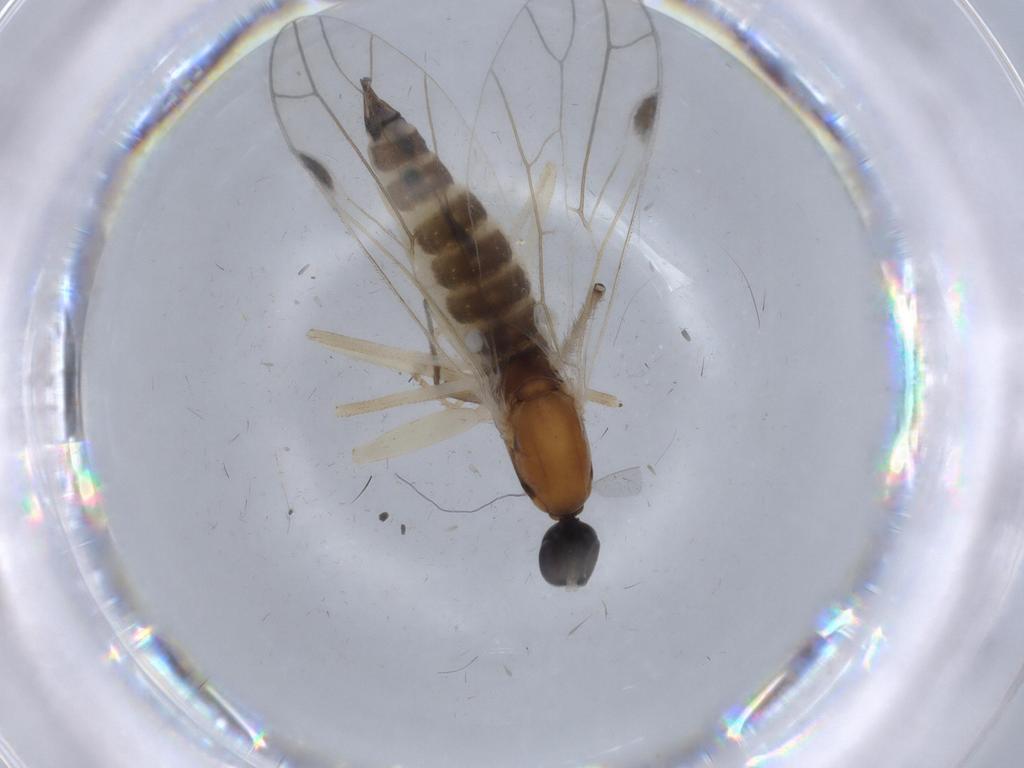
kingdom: Animalia
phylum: Arthropoda
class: Insecta
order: Diptera
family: Empididae
